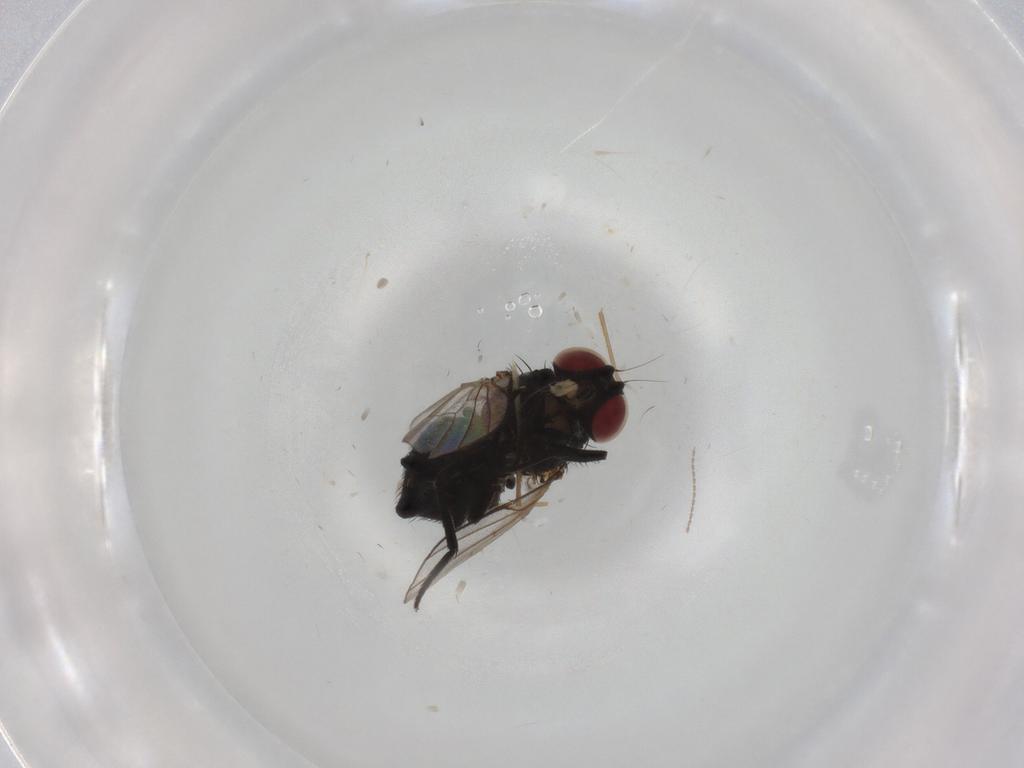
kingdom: Animalia
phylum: Arthropoda
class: Insecta
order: Diptera
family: Agromyzidae
